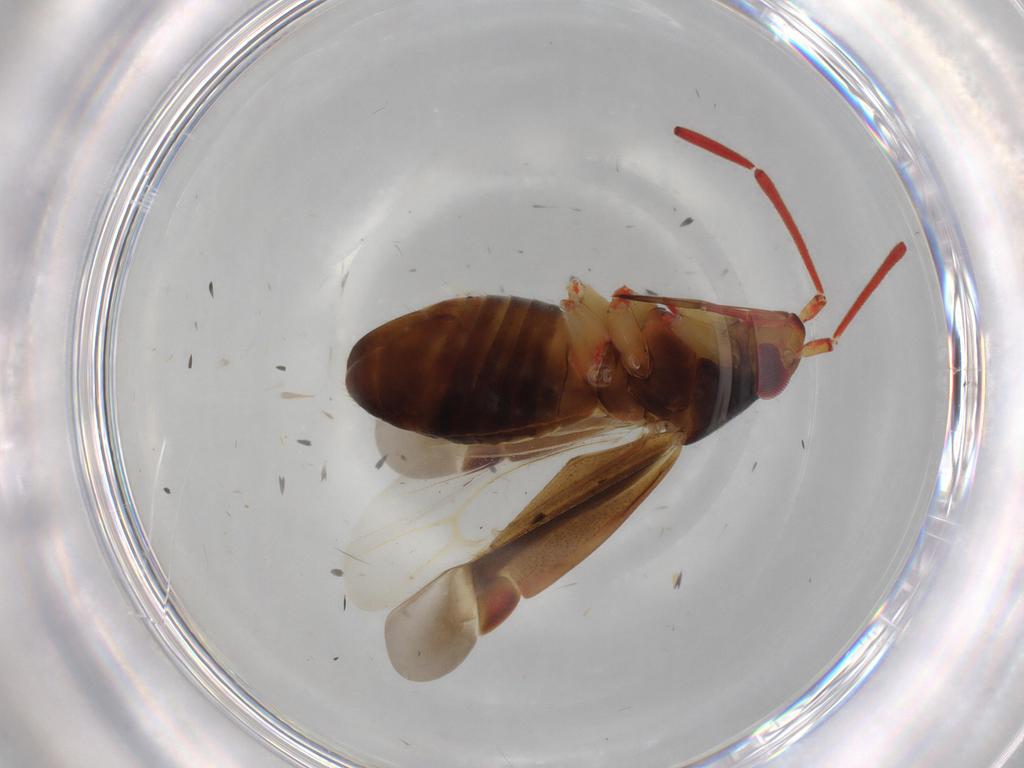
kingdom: Animalia
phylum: Arthropoda
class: Insecta
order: Hemiptera
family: Miridae
